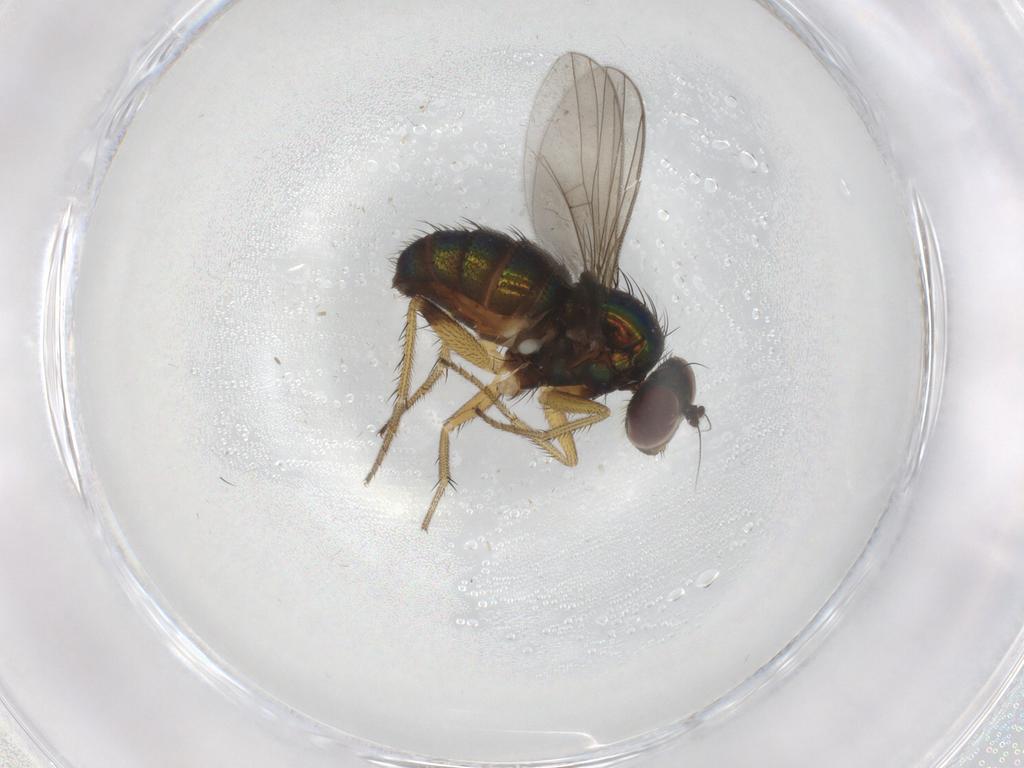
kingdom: Animalia
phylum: Arthropoda
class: Insecta
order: Diptera
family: Dolichopodidae
